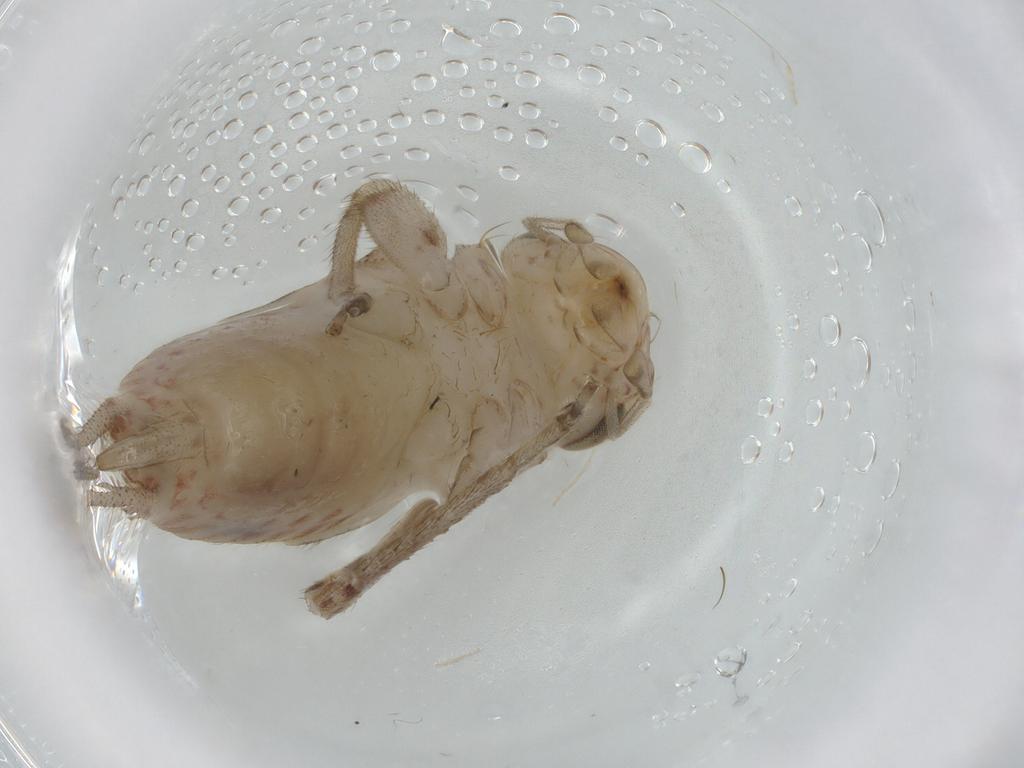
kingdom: Animalia
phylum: Arthropoda
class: Insecta
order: Orthoptera
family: Trigonidiidae
